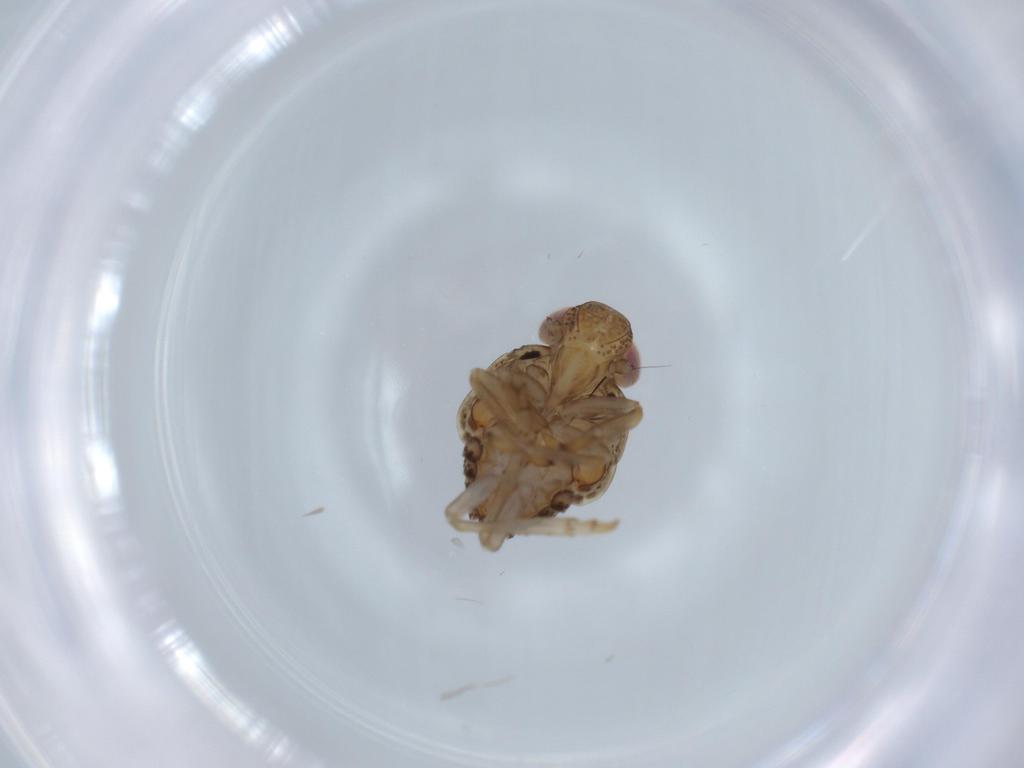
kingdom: Animalia
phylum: Arthropoda
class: Insecta
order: Hemiptera
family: Issidae
